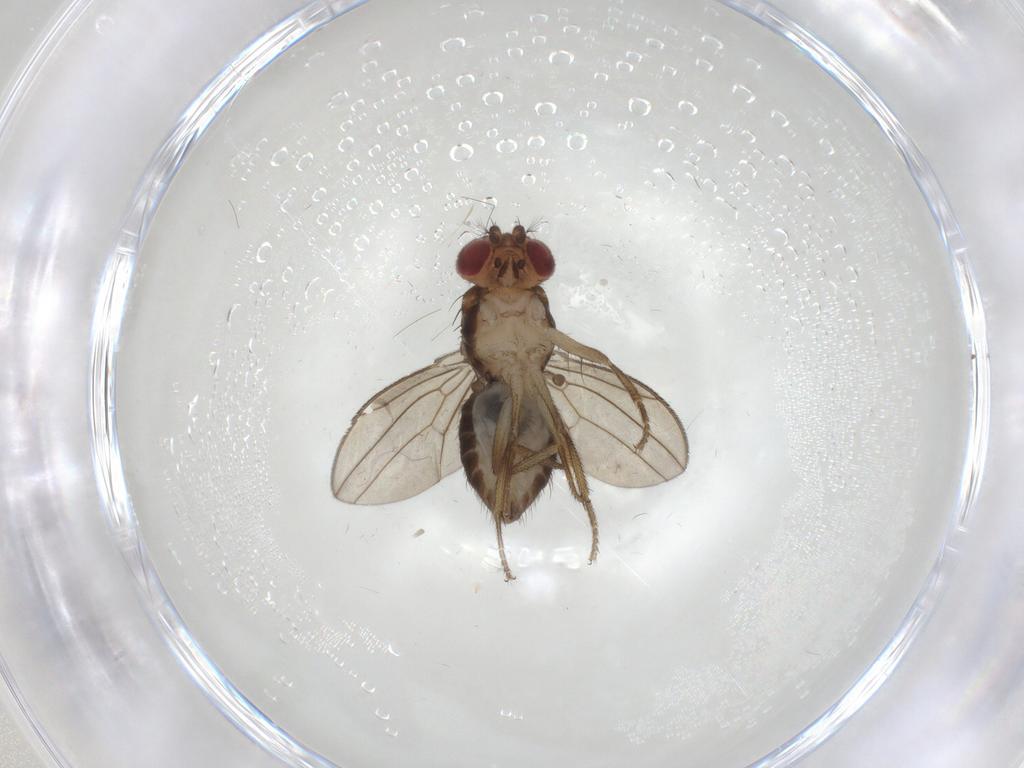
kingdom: Animalia
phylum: Arthropoda
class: Insecta
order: Diptera
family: Drosophilidae
